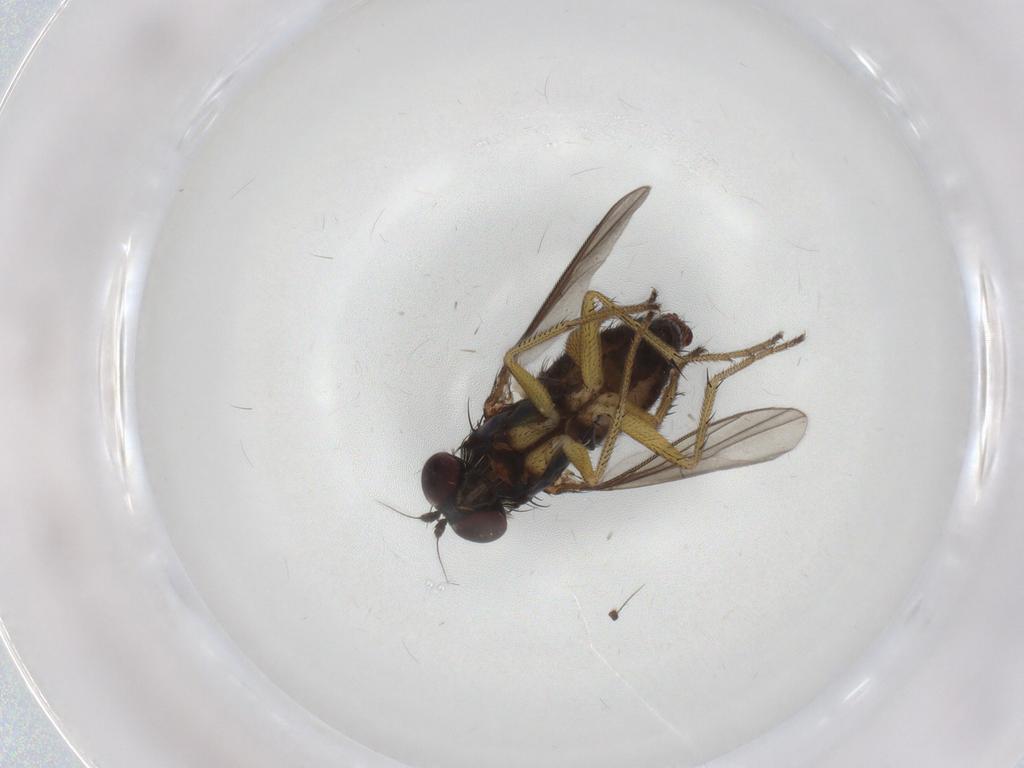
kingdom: Animalia
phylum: Arthropoda
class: Insecta
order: Diptera
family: Dolichopodidae
